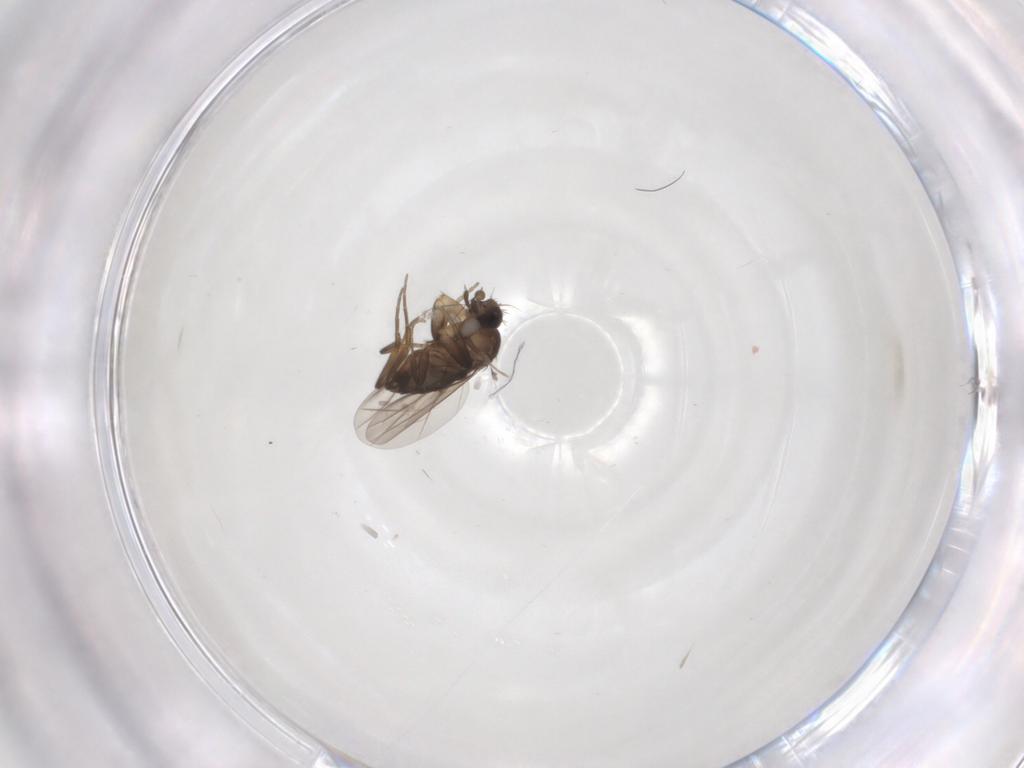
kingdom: Animalia
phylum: Arthropoda
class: Insecta
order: Diptera
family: Phoridae
